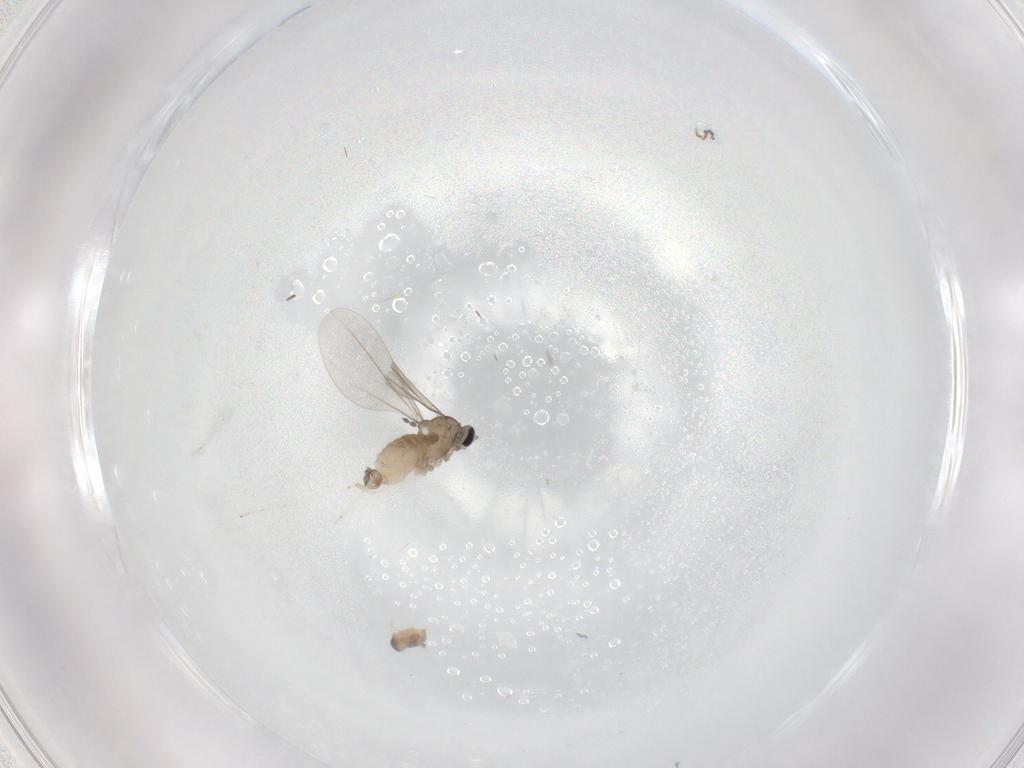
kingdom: Animalia
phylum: Arthropoda
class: Insecta
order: Diptera
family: Cecidomyiidae
